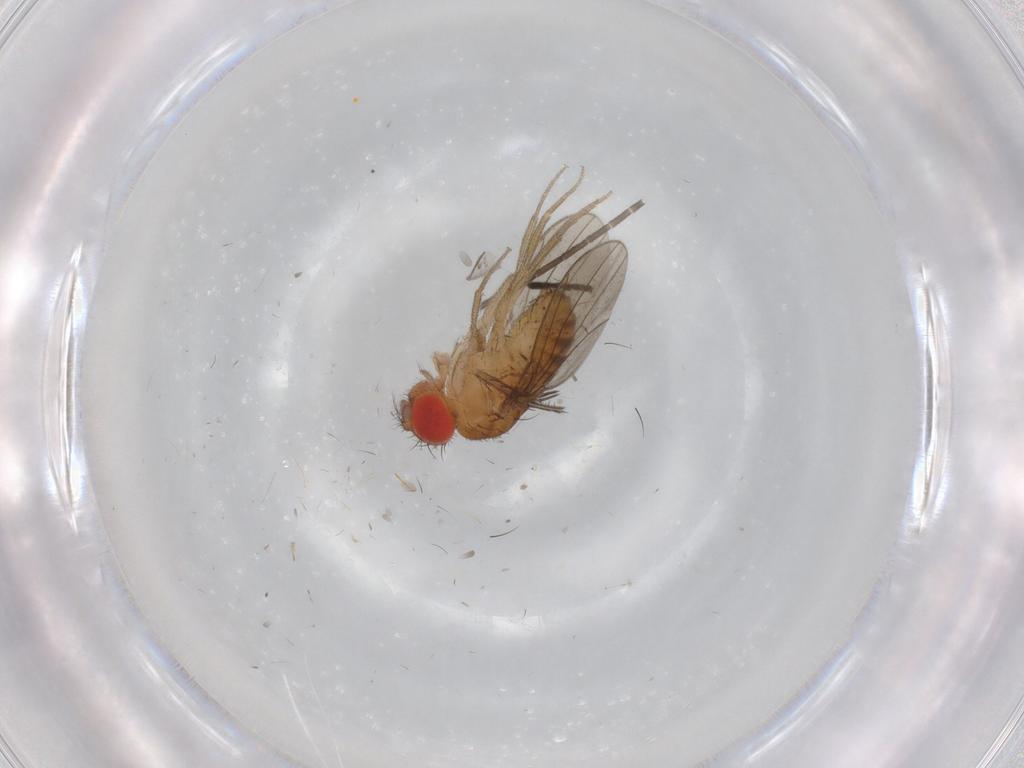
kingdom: Animalia
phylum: Arthropoda
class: Insecta
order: Diptera
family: Drosophilidae
